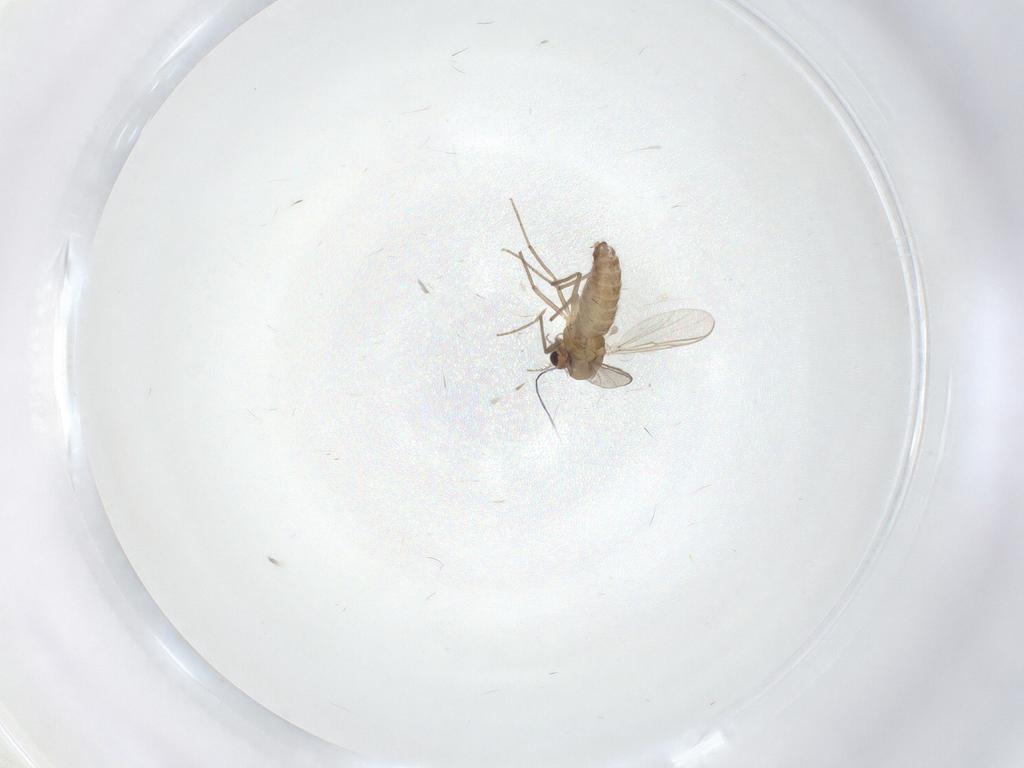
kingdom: Animalia
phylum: Arthropoda
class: Insecta
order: Diptera
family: Chironomidae
